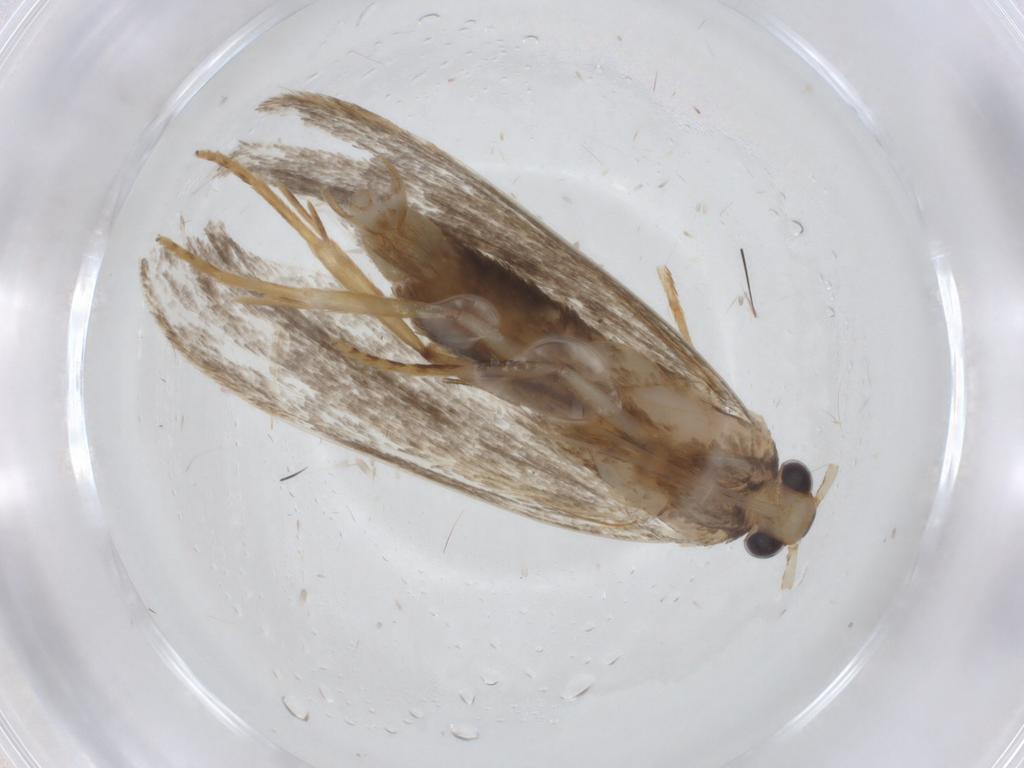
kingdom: Animalia
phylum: Arthropoda
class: Insecta
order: Lepidoptera
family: Lecithoceridae
